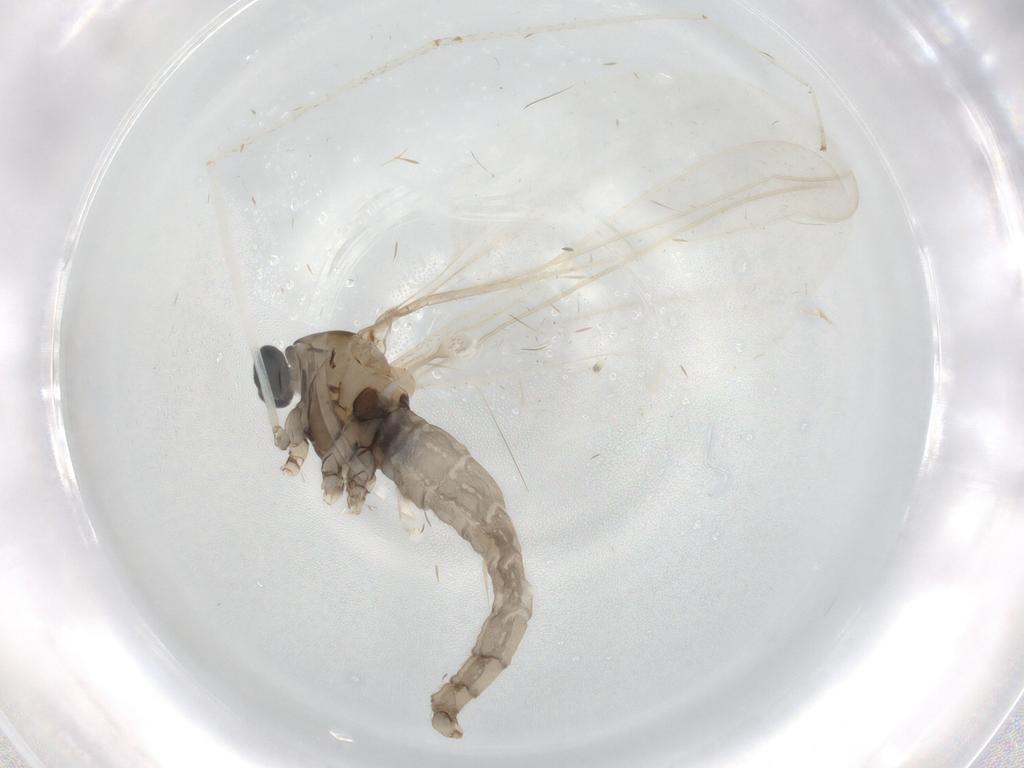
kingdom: Animalia
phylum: Arthropoda
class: Insecta
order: Diptera
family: Cecidomyiidae
